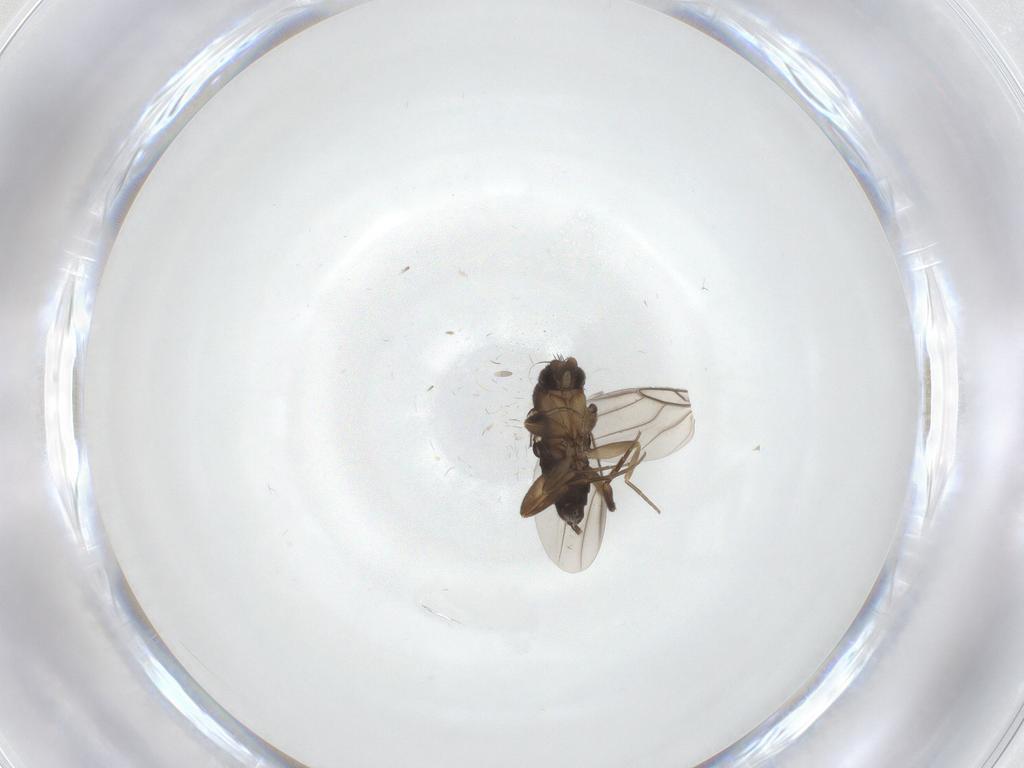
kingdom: Animalia
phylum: Arthropoda
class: Insecta
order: Diptera
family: Phoridae
